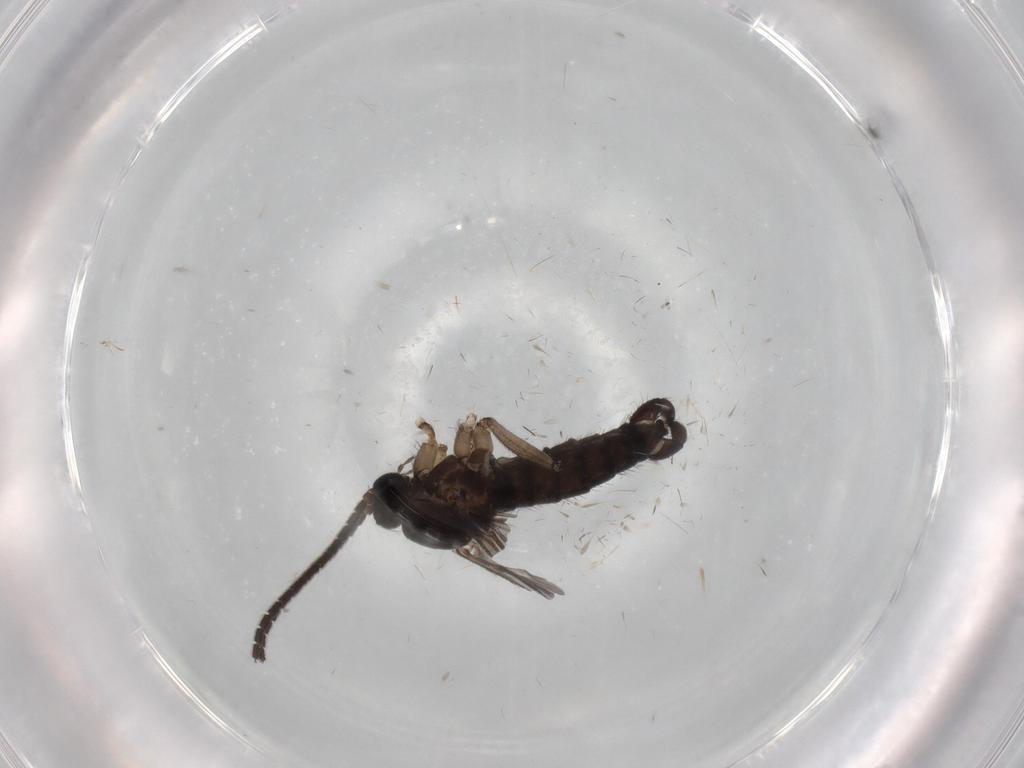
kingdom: Animalia
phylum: Arthropoda
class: Insecta
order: Diptera
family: Sciaridae
